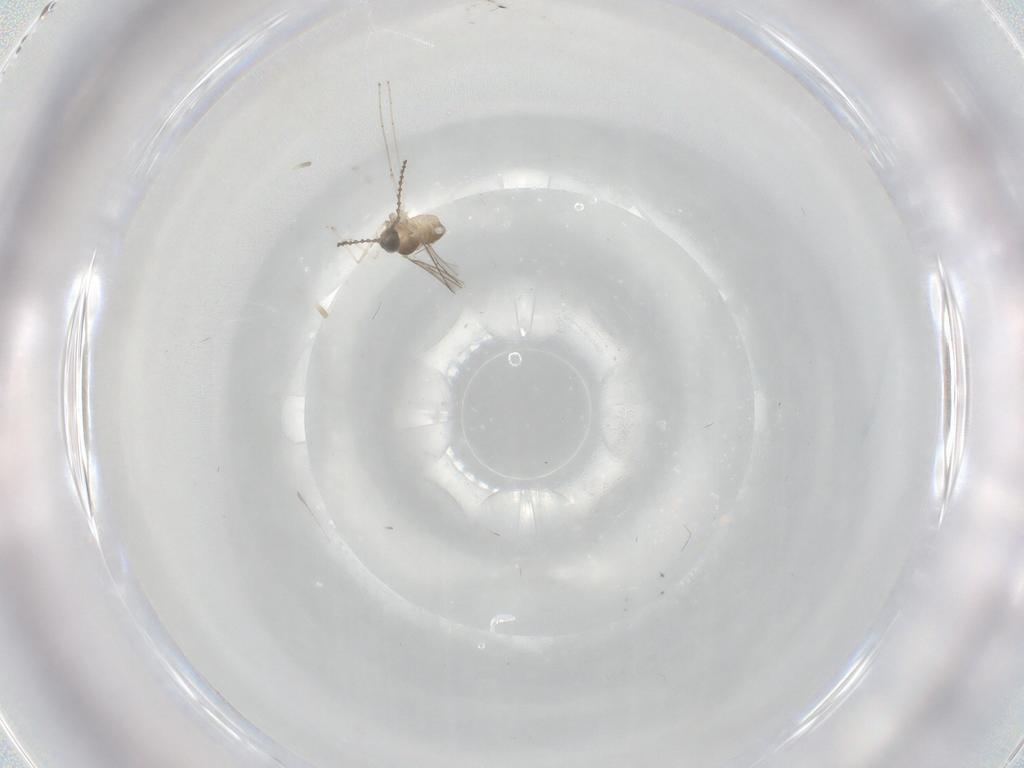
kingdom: Animalia
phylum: Arthropoda
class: Insecta
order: Diptera
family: Cecidomyiidae
